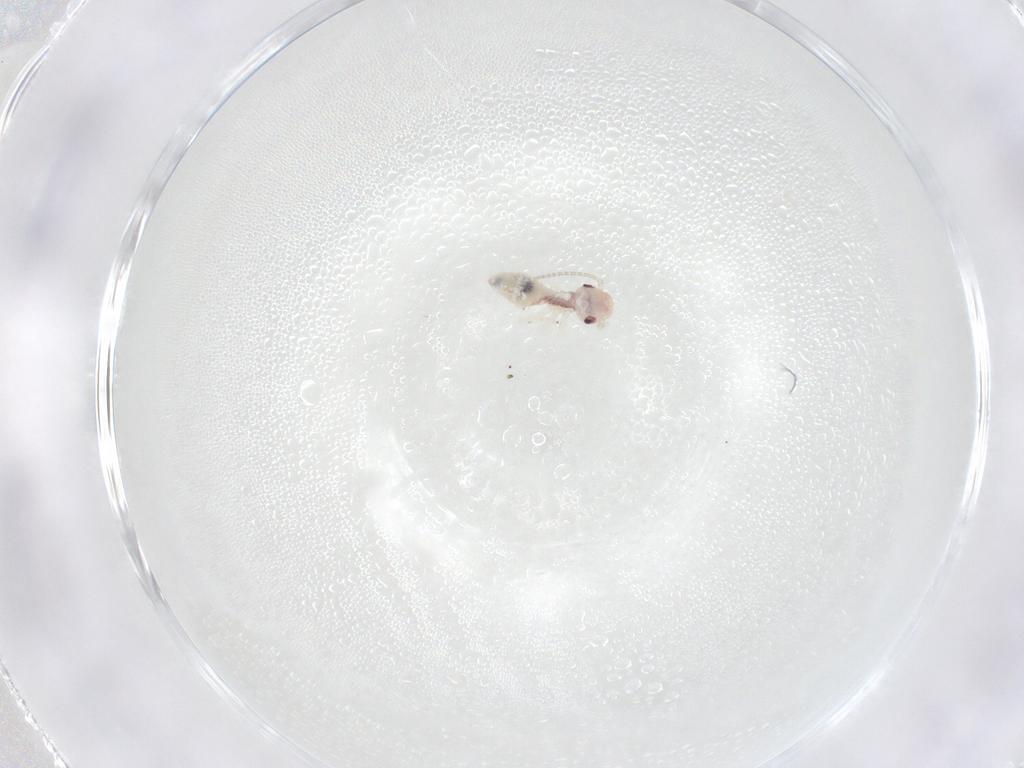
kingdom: Animalia
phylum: Arthropoda
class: Insecta
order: Psocodea
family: Amphipsocidae
